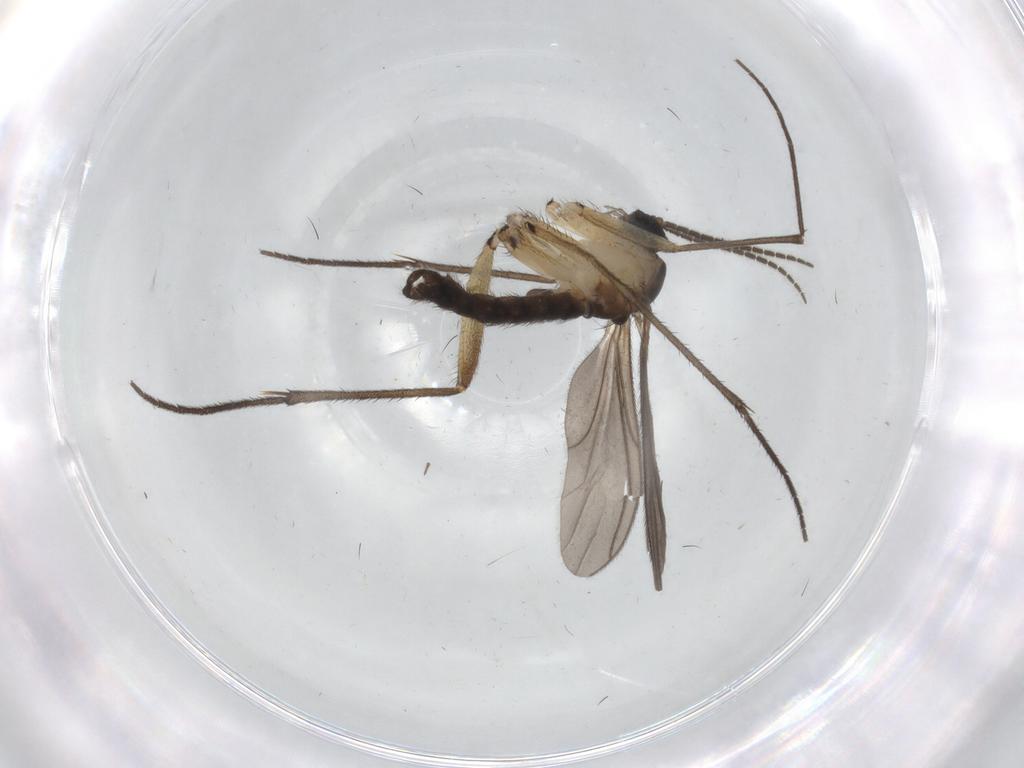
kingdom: Animalia
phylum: Arthropoda
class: Insecta
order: Diptera
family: Sciaridae
